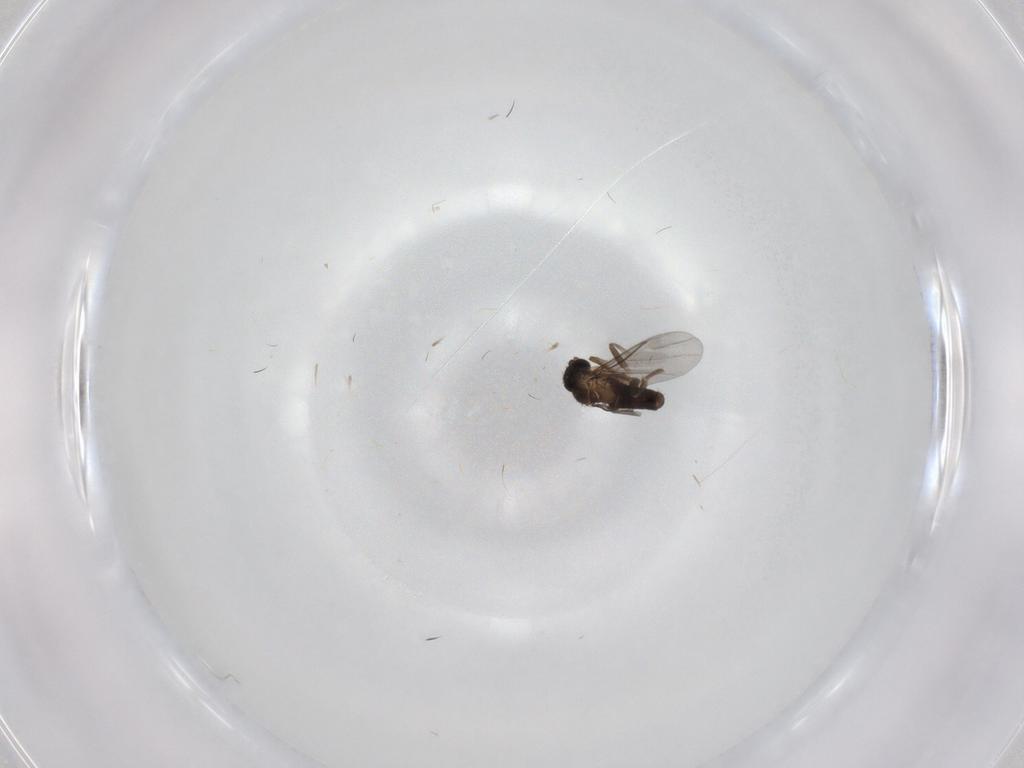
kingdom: Animalia
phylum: Arthropoda
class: Insecta
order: Diptera
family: Tabanidae
